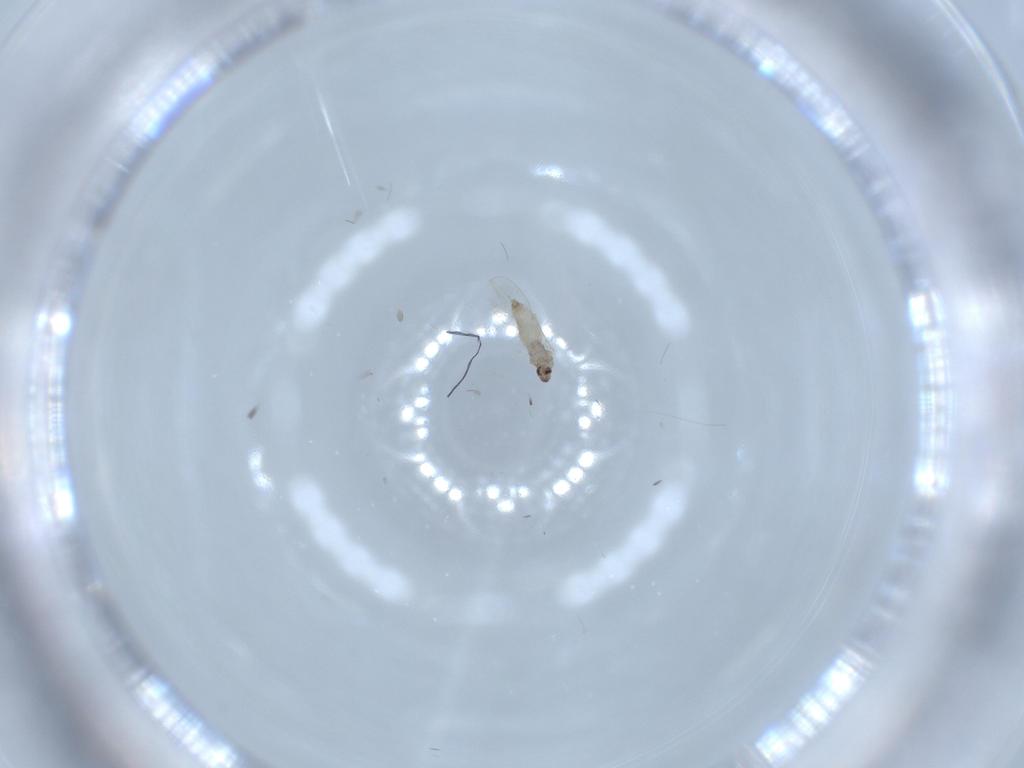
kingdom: Animalia
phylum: Arthropoda
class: Insecta
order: Diptera
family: Cecidomyiidae
